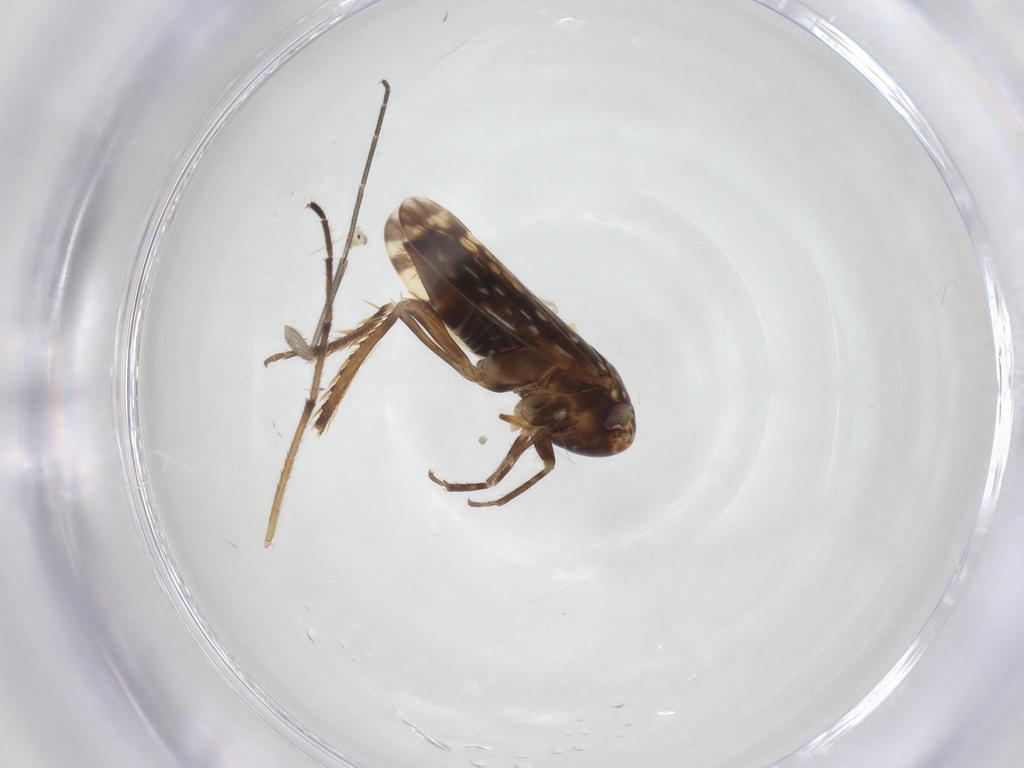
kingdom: Animalia
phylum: Arthropoda
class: Insecta
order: Hemiptera
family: Cicadellidae
